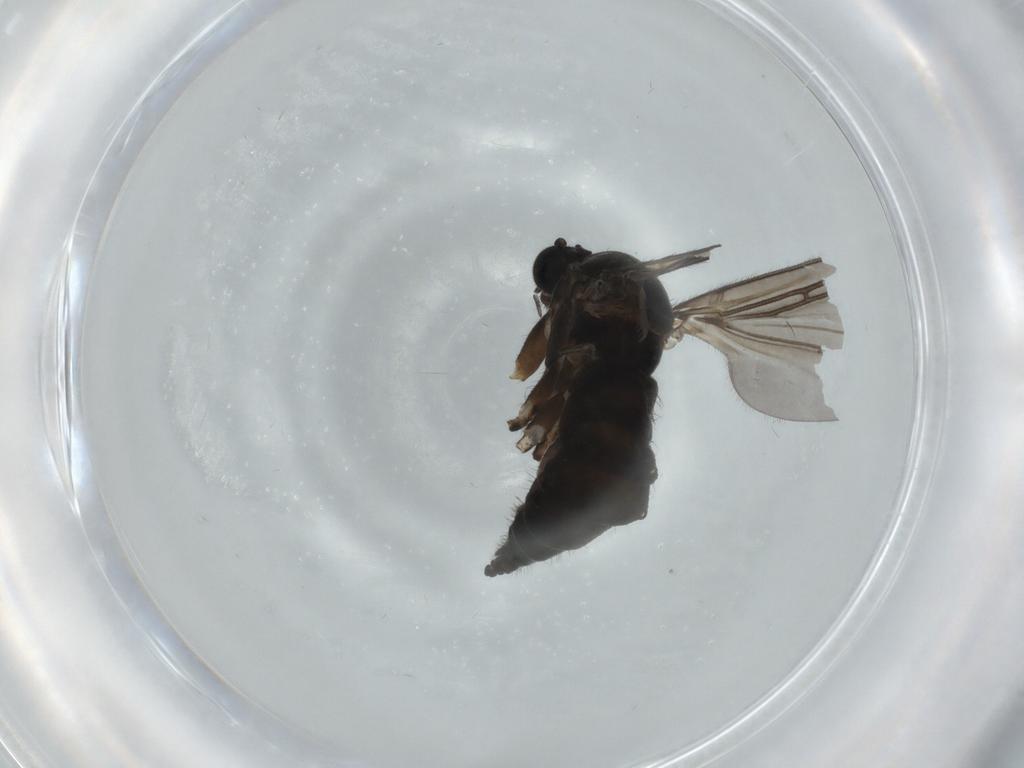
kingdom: Animalia
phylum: Arthropoda
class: Insecta
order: Diptera
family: Sciaridae
